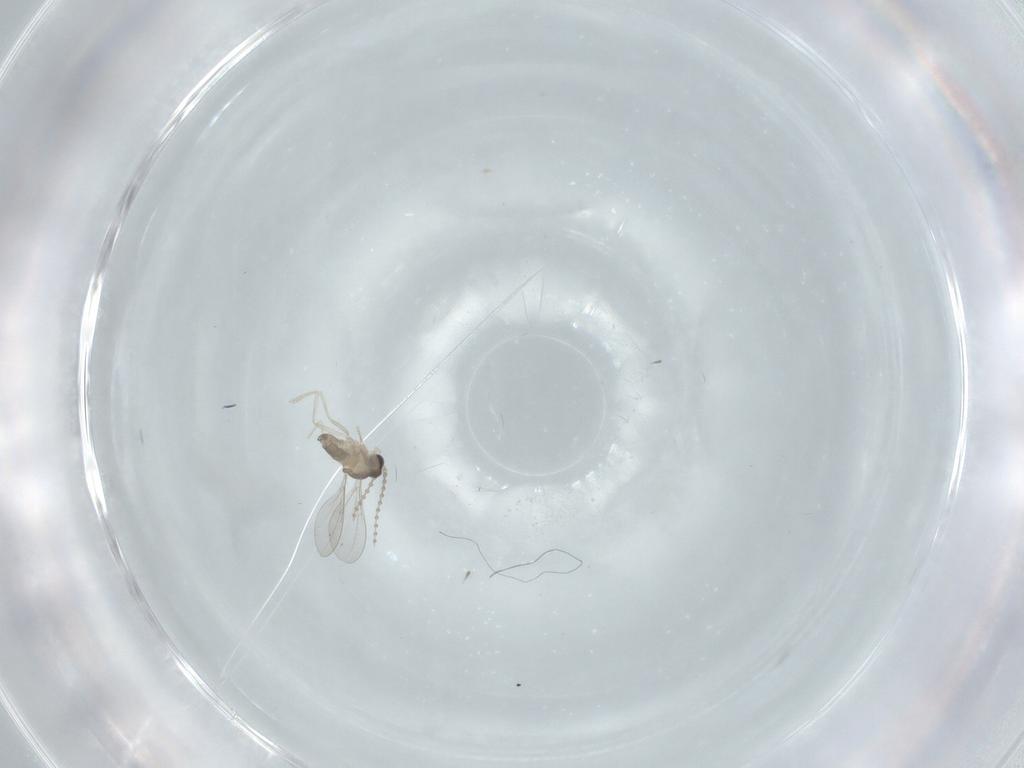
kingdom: Animalia
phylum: Arthropoda
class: Insecta
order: Diptera
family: Cecidomyiidae
